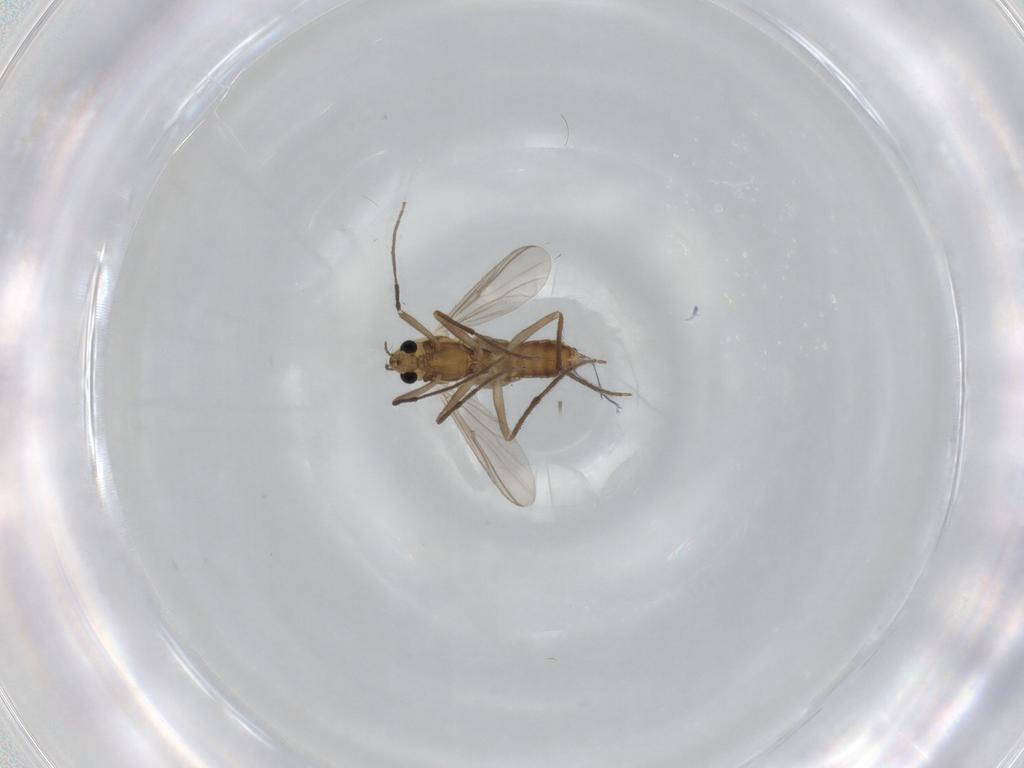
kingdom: Animalia
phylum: Arthropoda
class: Insecta
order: Diptera
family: Chironomidae
